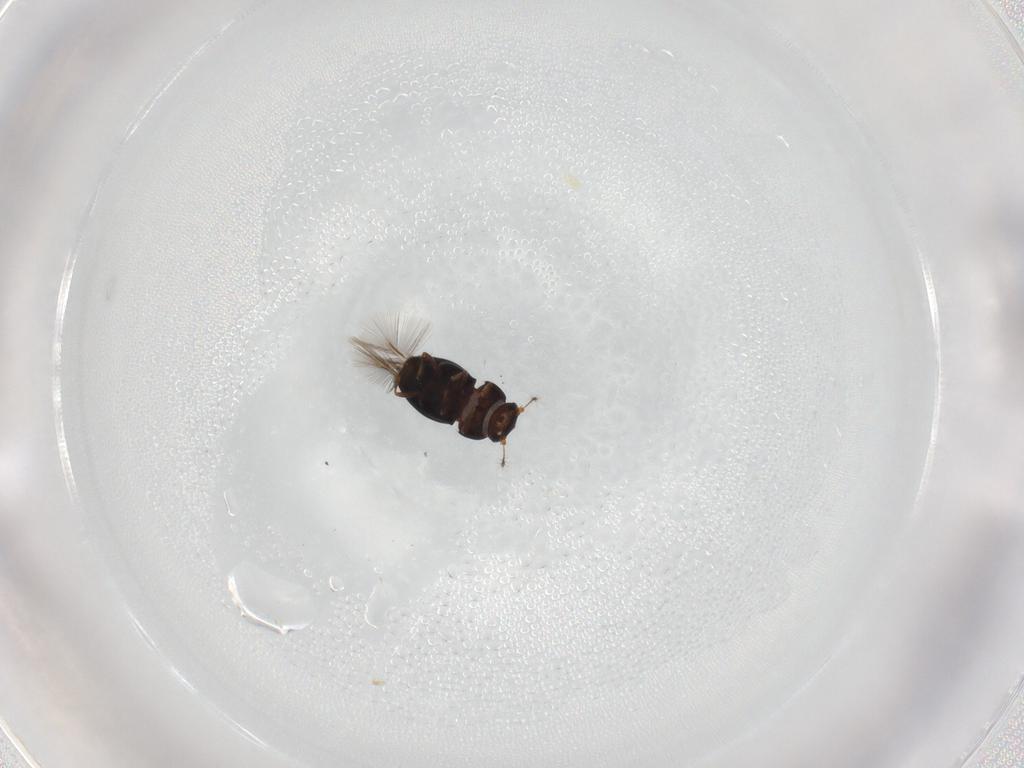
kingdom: Animalia
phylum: Arthropoda
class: Insecta
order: Coleoptera
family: Ptiliidae
